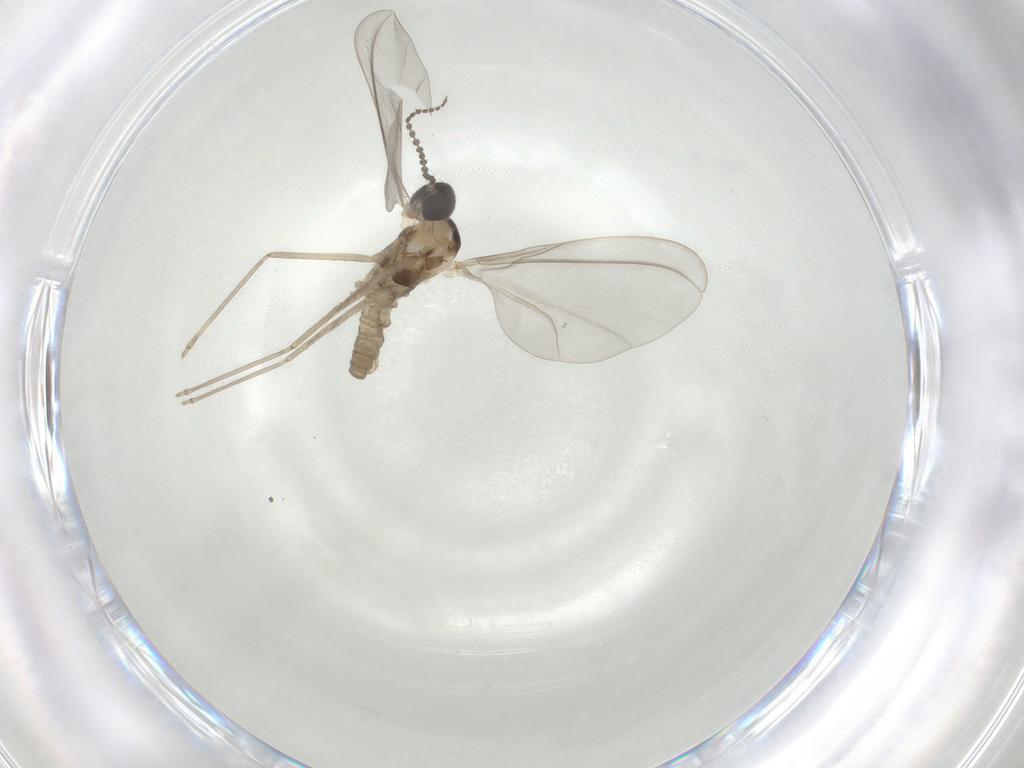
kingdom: Animalia
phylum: Arthropoda
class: Insecta
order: Diptera
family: Cecidomyiidae
